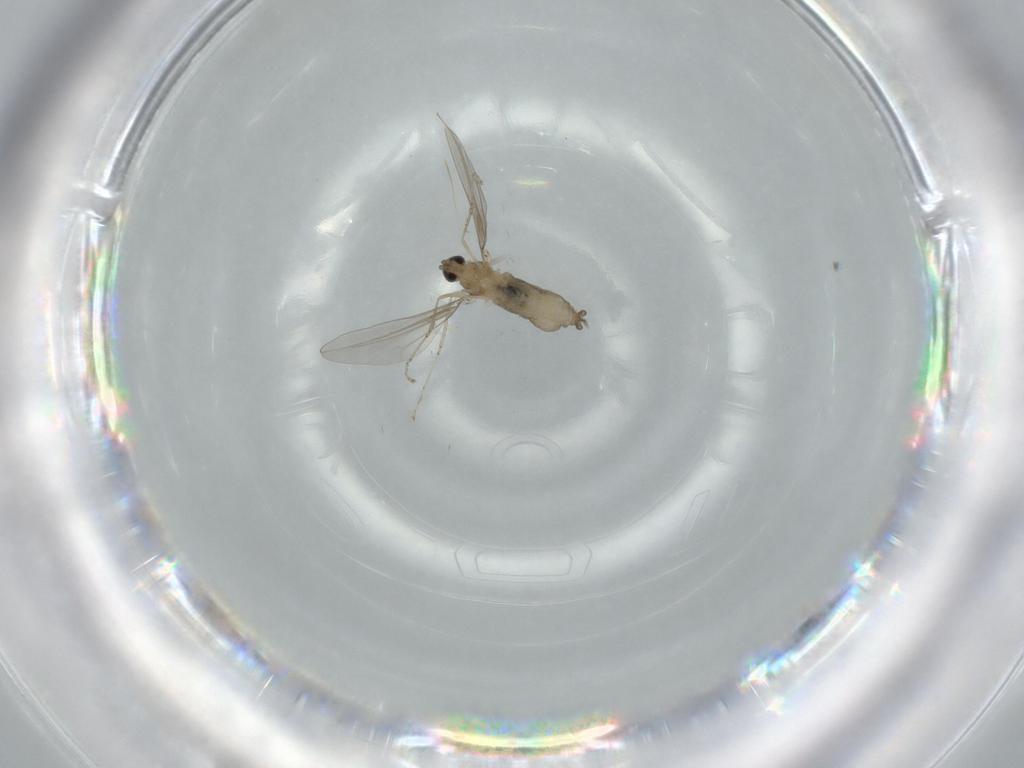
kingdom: Animalia
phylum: Arthropoda
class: Insecta
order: Diptera
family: Cecidomyiidae
